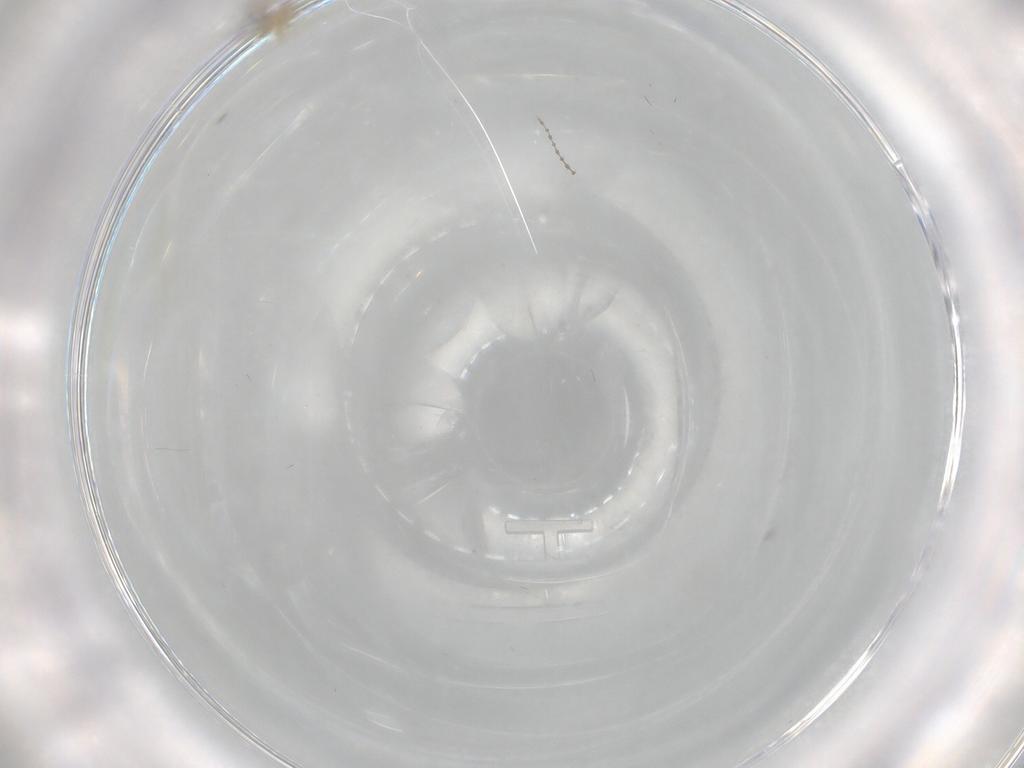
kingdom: Animalia
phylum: Arthropoda
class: Insecta
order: Diptera
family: Cecidomyiidae
